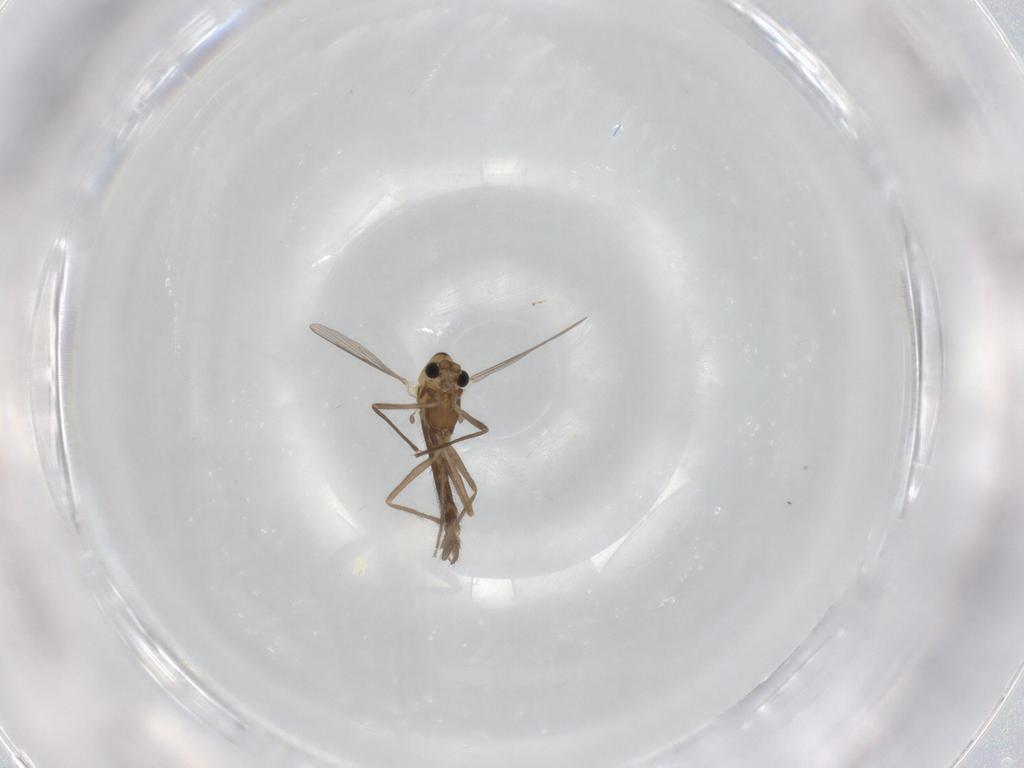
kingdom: Animalia
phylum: Arthropoda
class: Insecta
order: Diptera
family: Chironomidae
